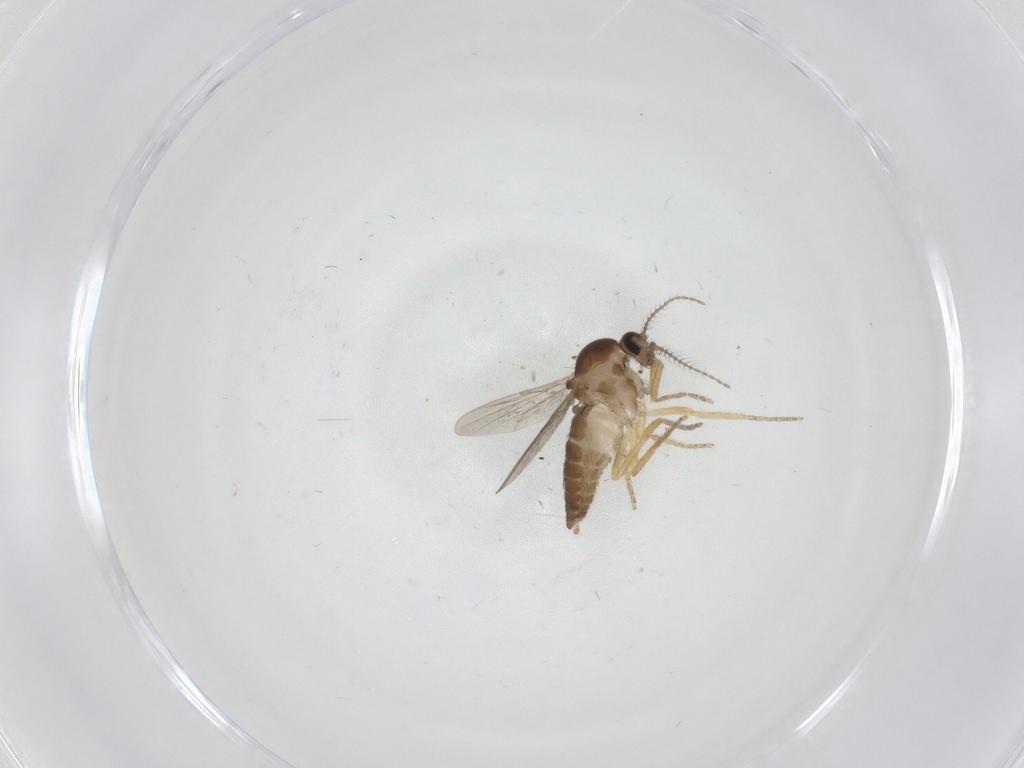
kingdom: Animalia
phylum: Arthropoda
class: Insecta
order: Diptera
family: Ceratopogonidae
